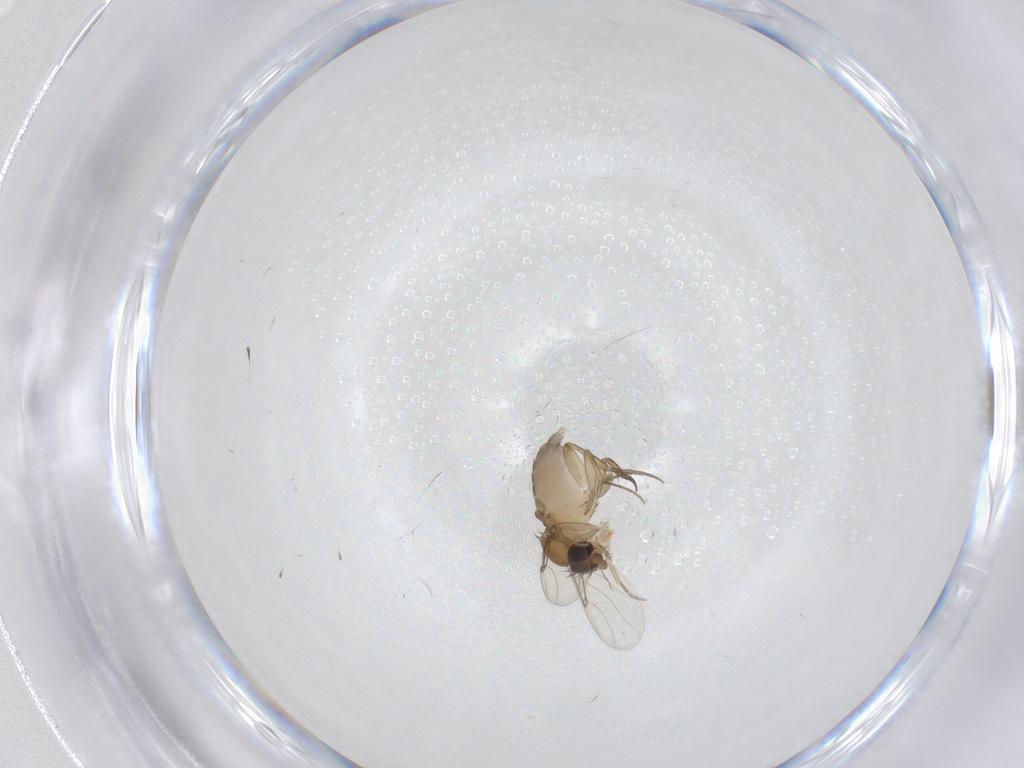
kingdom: Animalia
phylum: Arthropoda
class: Insecta
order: Diptera
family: Phoridae
